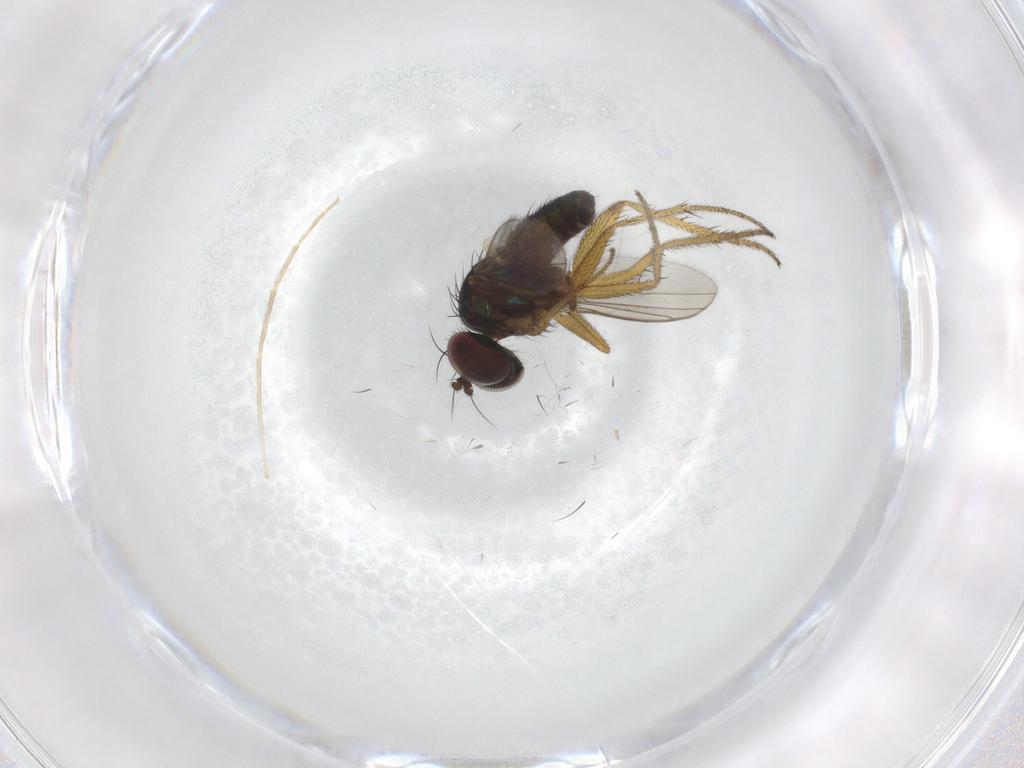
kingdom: Animalia
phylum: Arthropoda
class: Insecta
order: Diptera
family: Chironomidae
